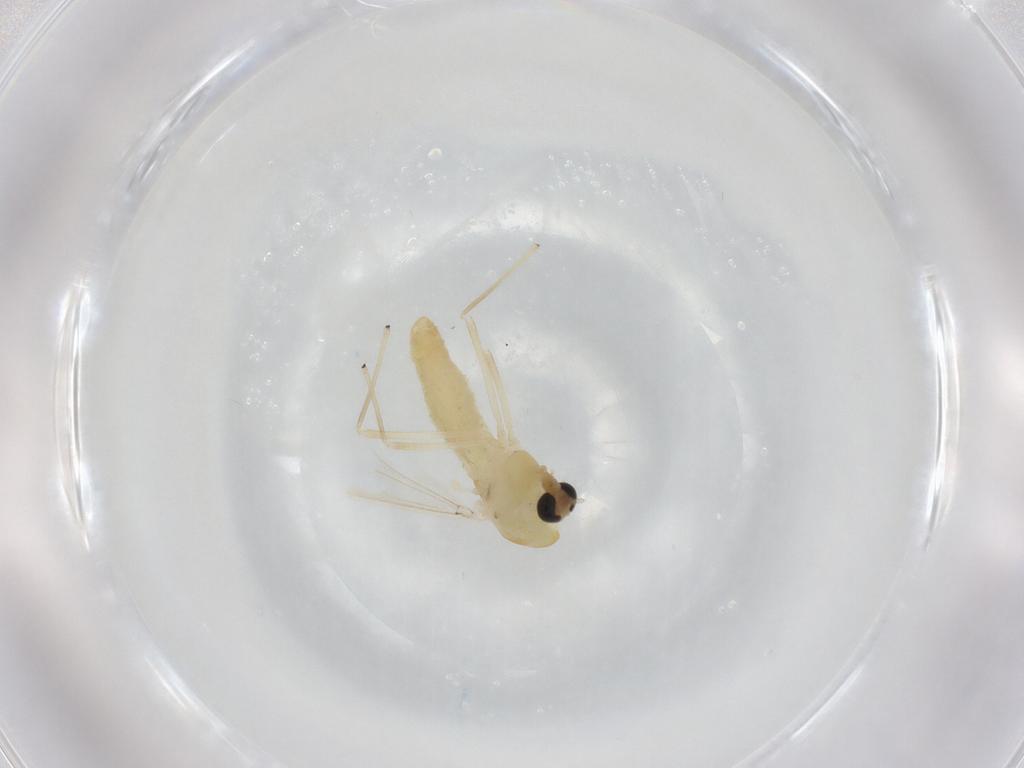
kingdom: Animalia
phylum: Arthropoda
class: Insecta
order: Diptera
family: Chironomidae
